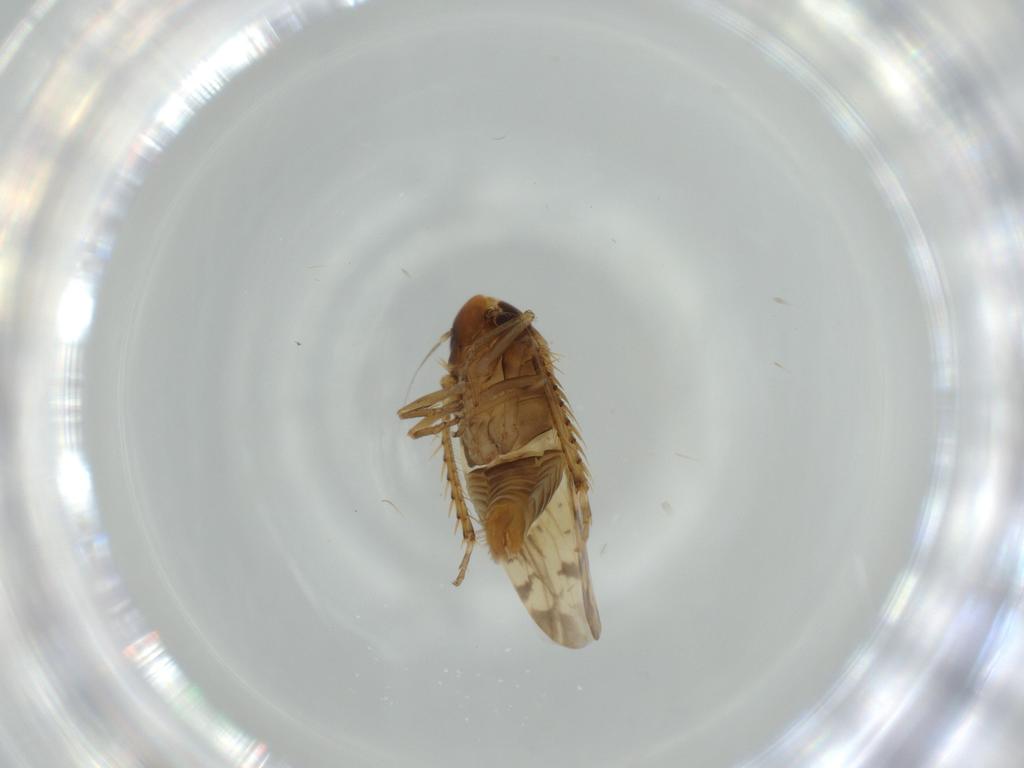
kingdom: Animalia
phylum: Arthropoda
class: Insecta
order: Hemiptera
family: Cicadellidae
